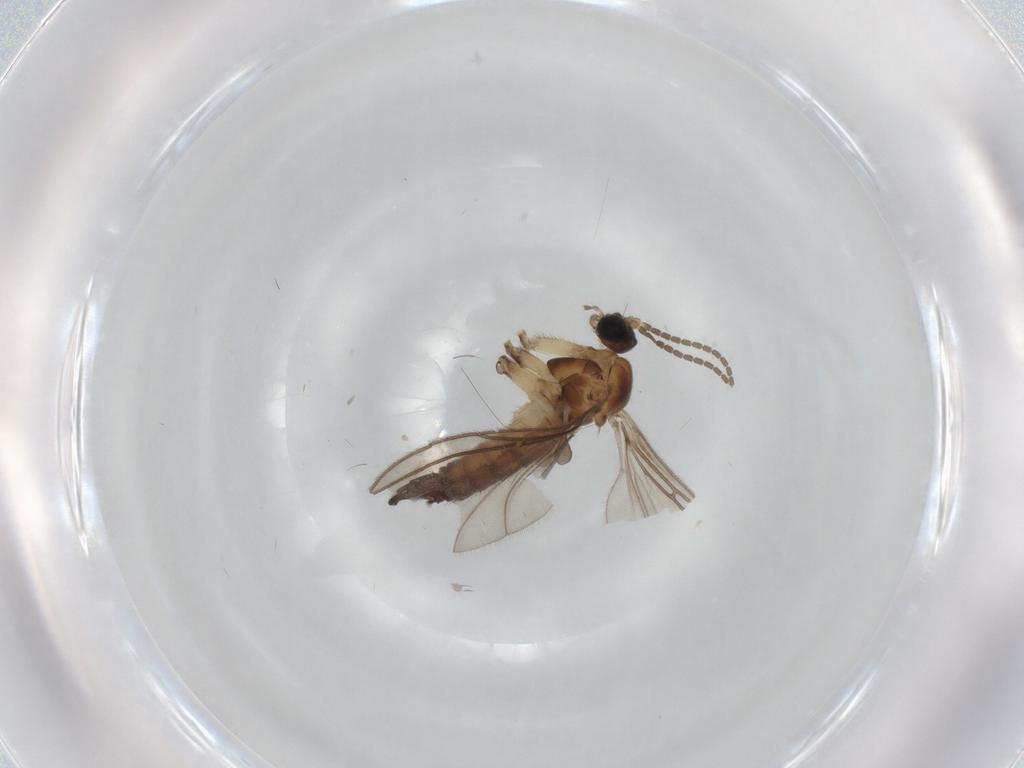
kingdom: Animalia
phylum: Arthropoda
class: Insecta
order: Diptera
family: Sciaridae
